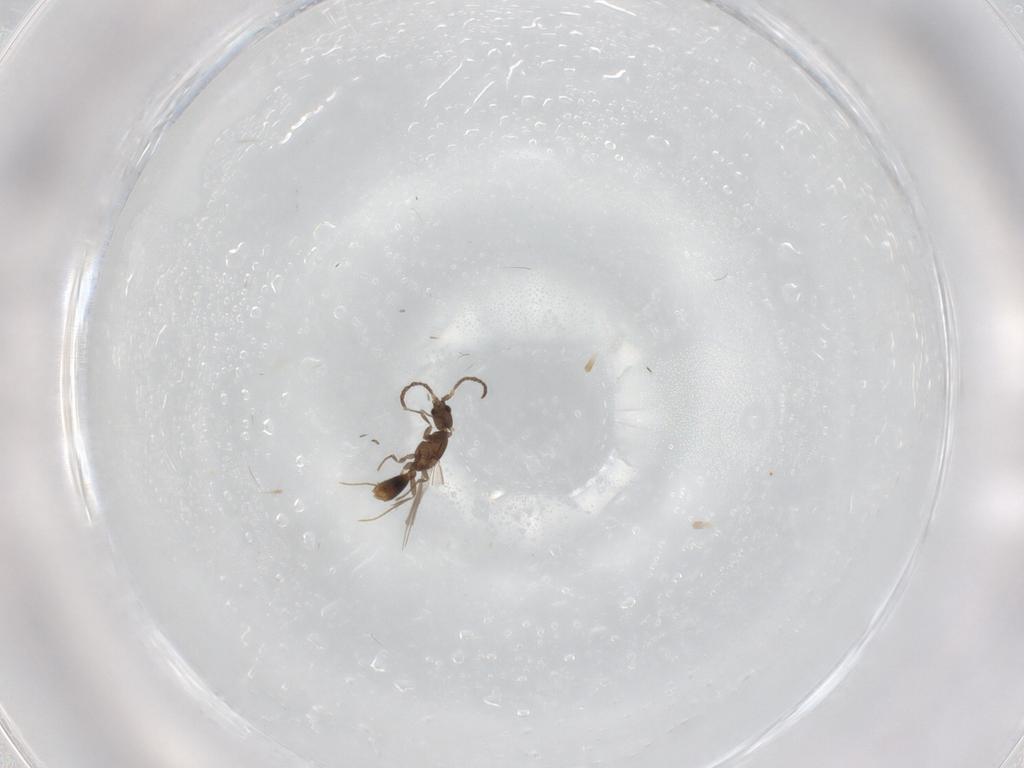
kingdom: Animalia
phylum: Arthropoda
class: Insecta
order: Hymenoptera
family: Formicidae
